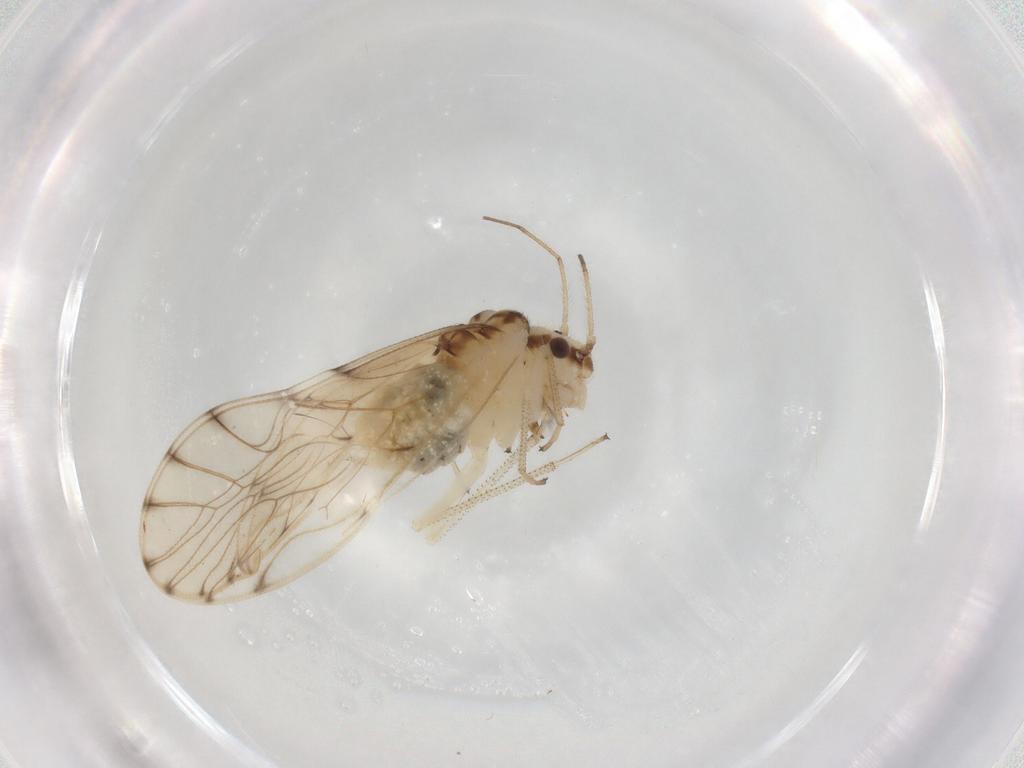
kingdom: Animalia
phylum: Arthropoda
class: Insecta
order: Psocodea
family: Philotarsidae
